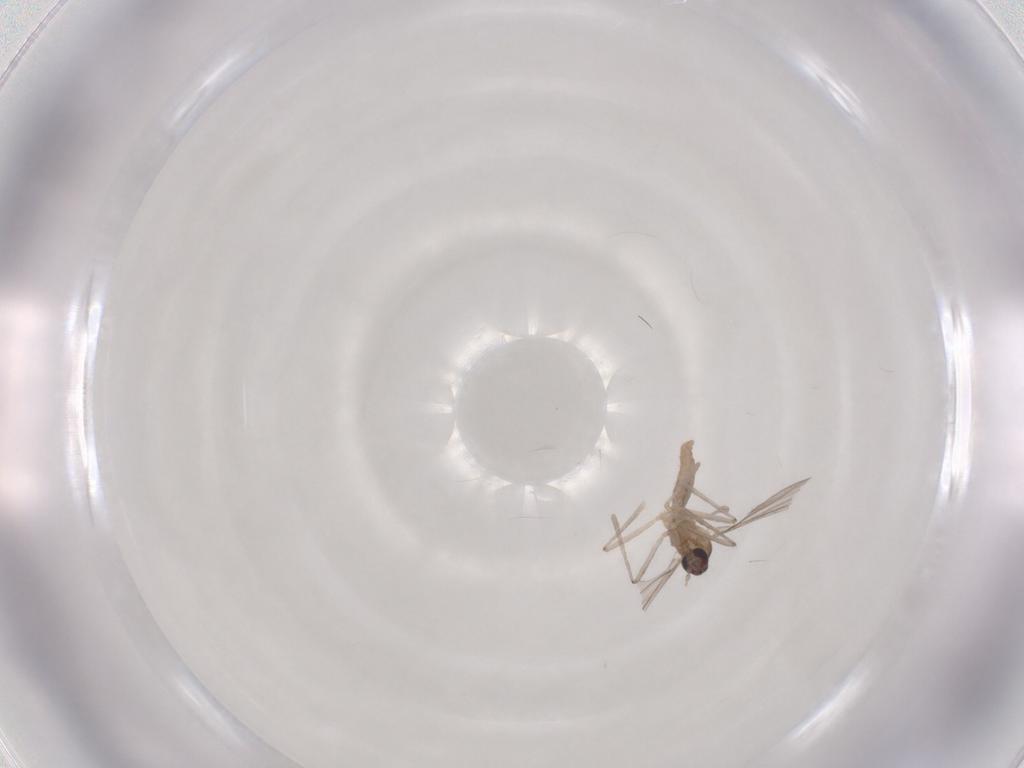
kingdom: Animalia
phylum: Arthropoda
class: Insecta
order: Diptera
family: Cecidomyiidae
